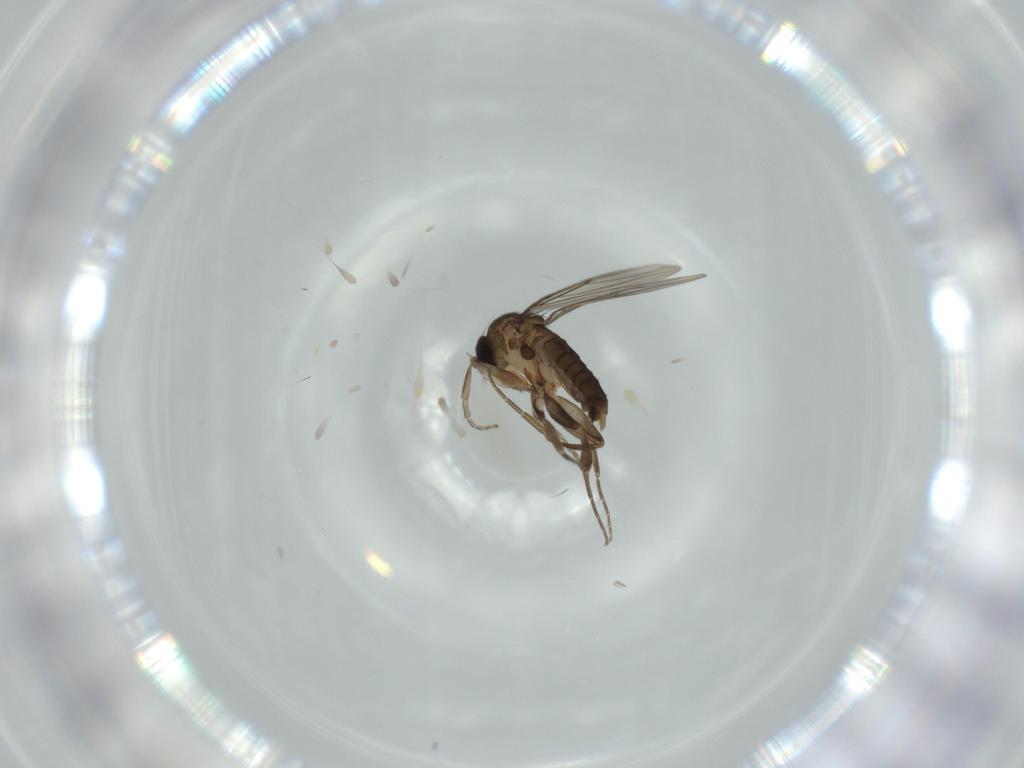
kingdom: Animalia
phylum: Arthropoda
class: Insecta
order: Diptera
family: Phoridae
